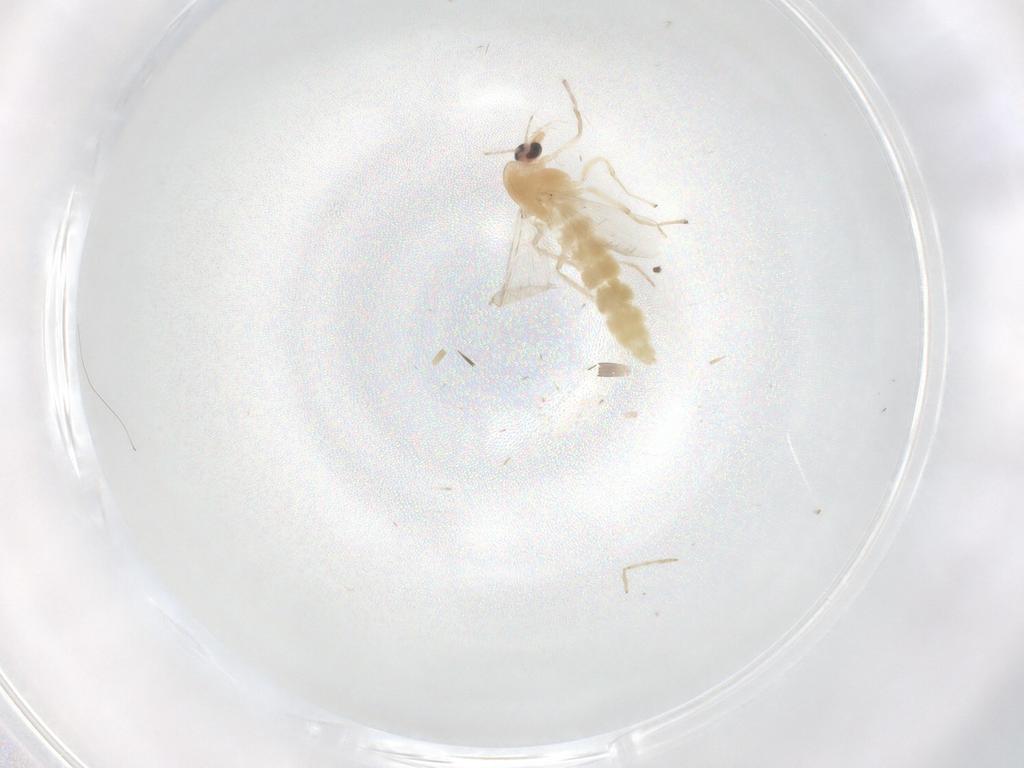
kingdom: Animalia
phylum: Arthropoda
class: Insecta
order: Diptera
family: Chironomidae
